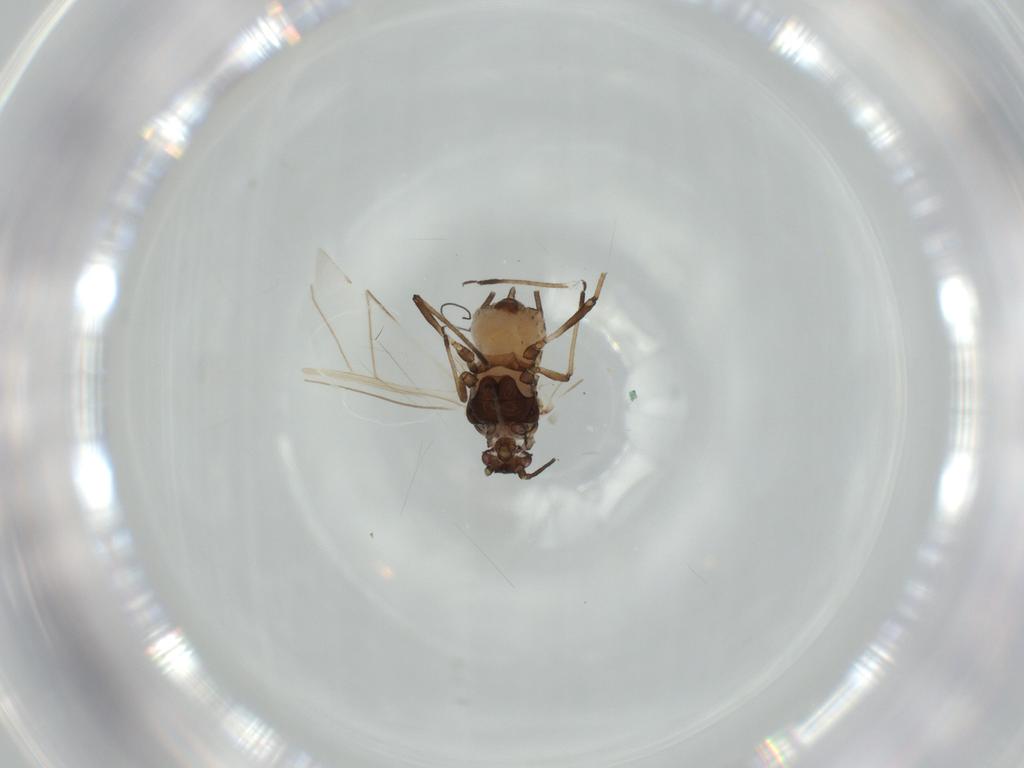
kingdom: Animalia
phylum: Arthropoda
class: Insecta
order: Hemiptera
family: Aphididae
